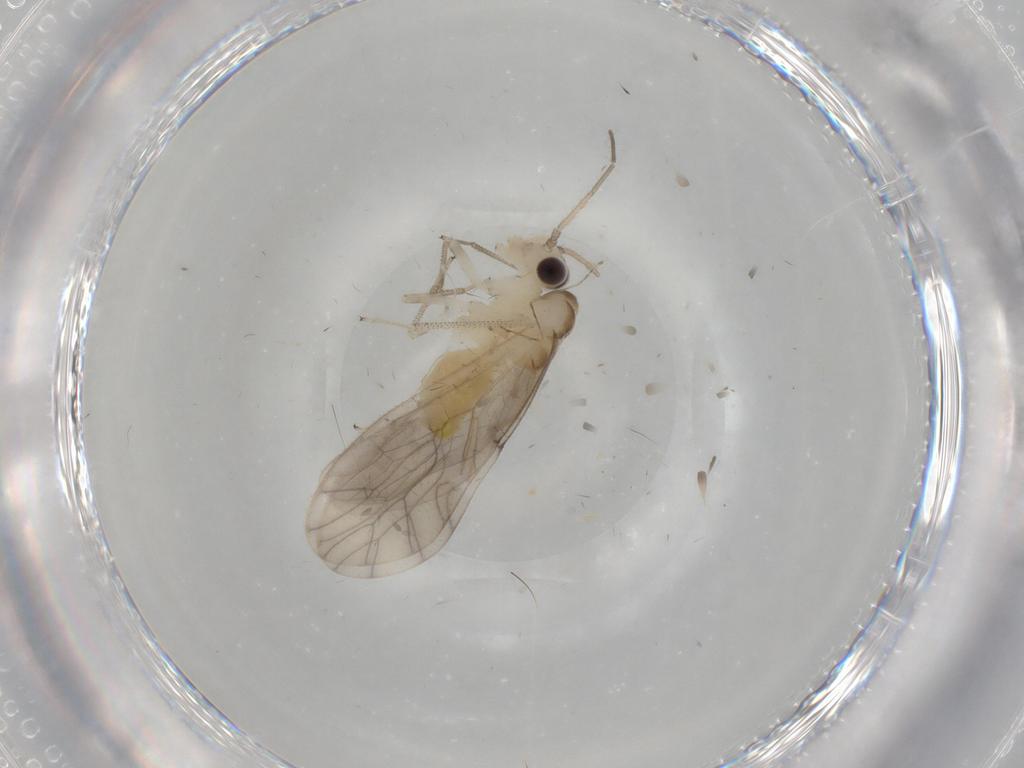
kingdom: Animalia
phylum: Arthropoda
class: Insecta
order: Psocodea
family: Caeciliusidae
